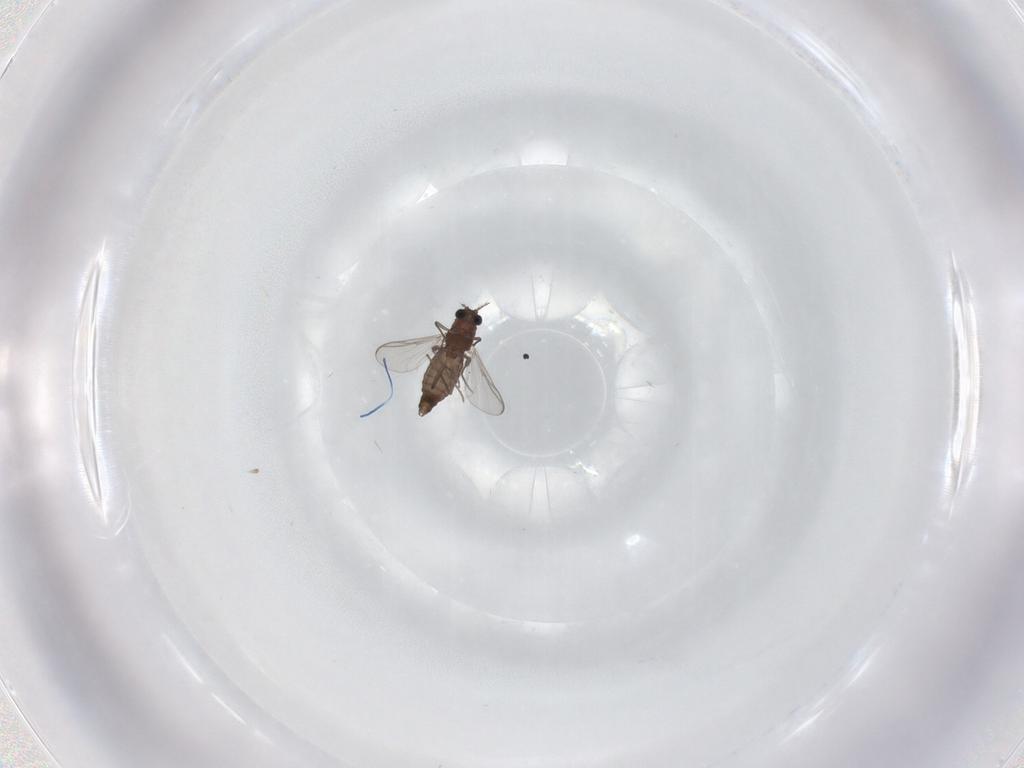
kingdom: Animalia
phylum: Arthropoda
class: Insecta
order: Diptera
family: Chironomidae
